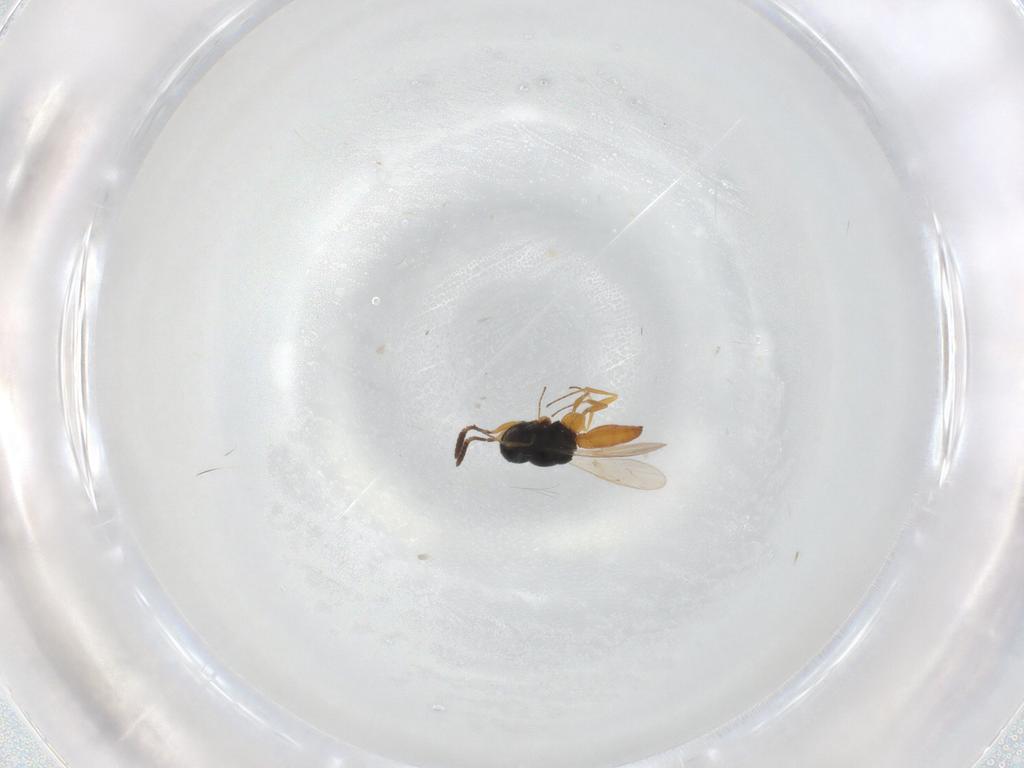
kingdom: Animalia
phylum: Arthropoda
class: Insecta
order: Hymenoptera
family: Scelionidae
